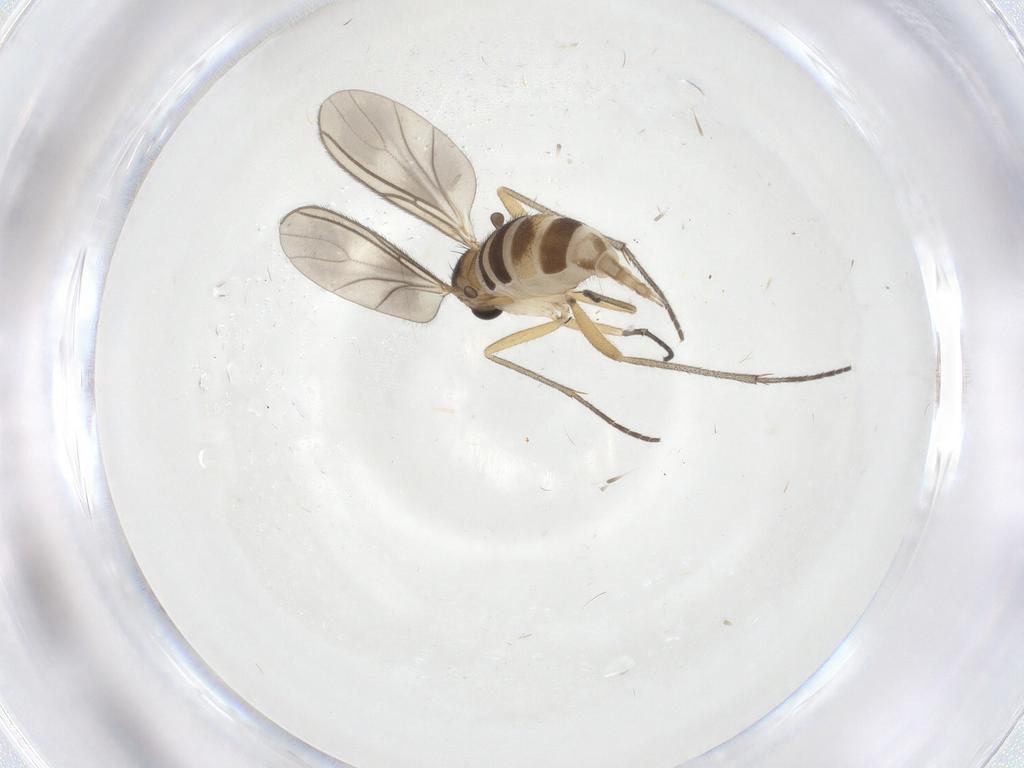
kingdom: Animalia
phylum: Arthropoda
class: Insecta
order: Diptera
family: Sciaridae
